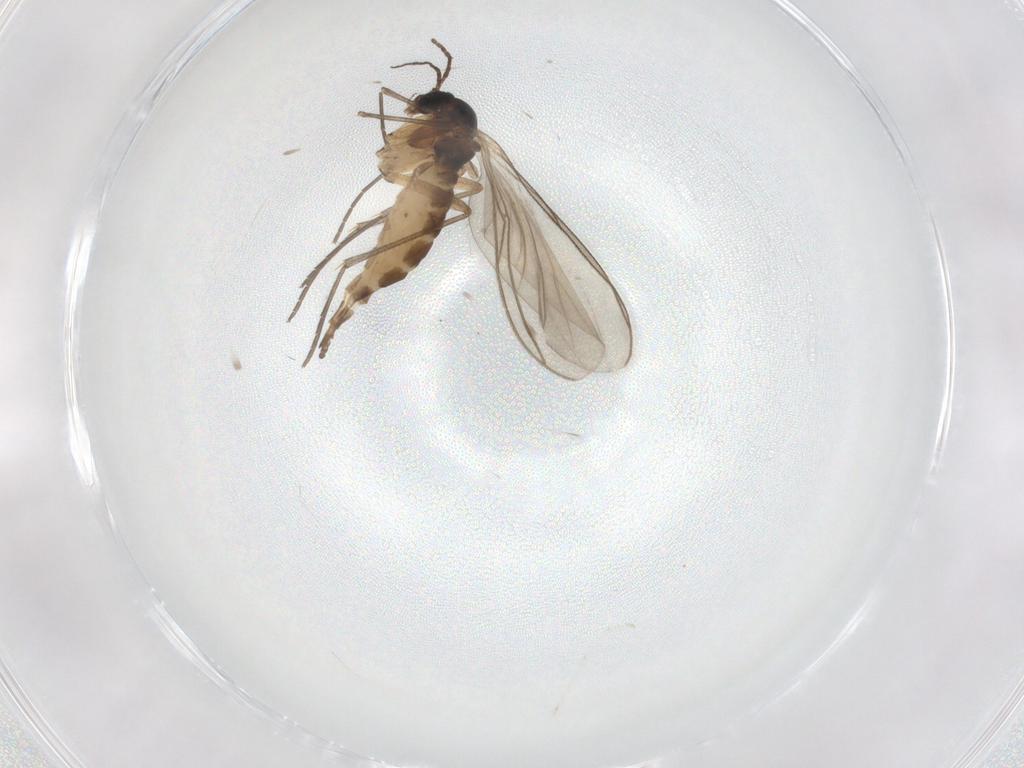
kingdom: Animalia
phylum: Arthropoda
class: Insecta
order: Diptera
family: Sciaridae
